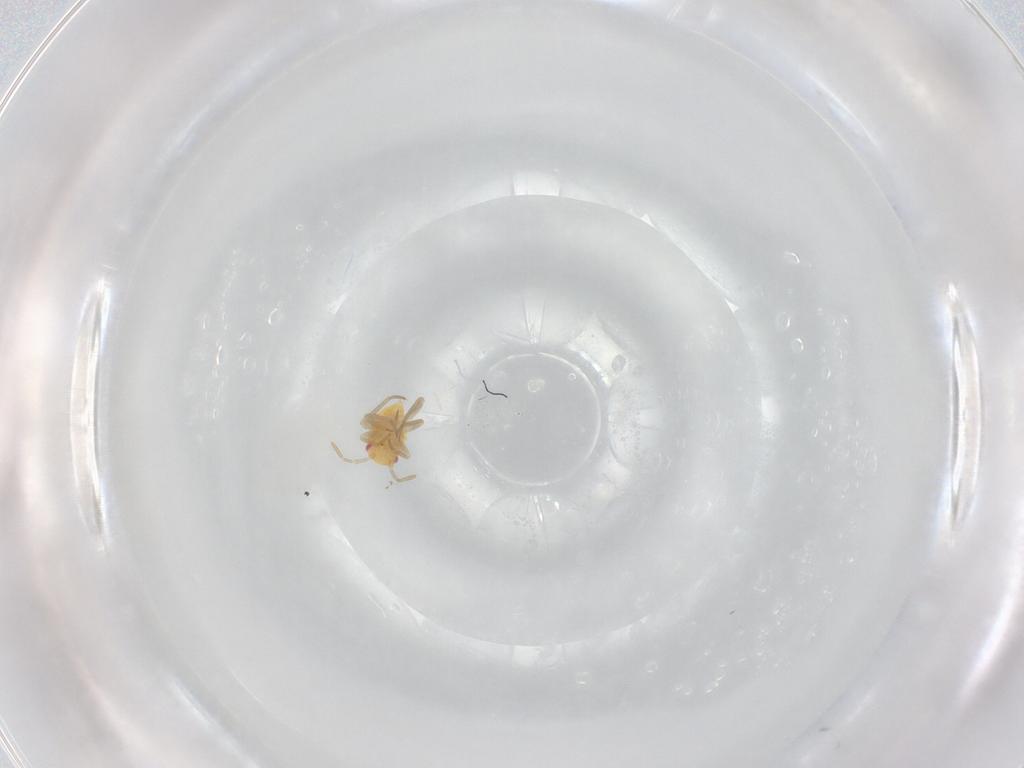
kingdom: Animalia
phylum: Arthropoda
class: Insecta
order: Hemiptera
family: Miridae
